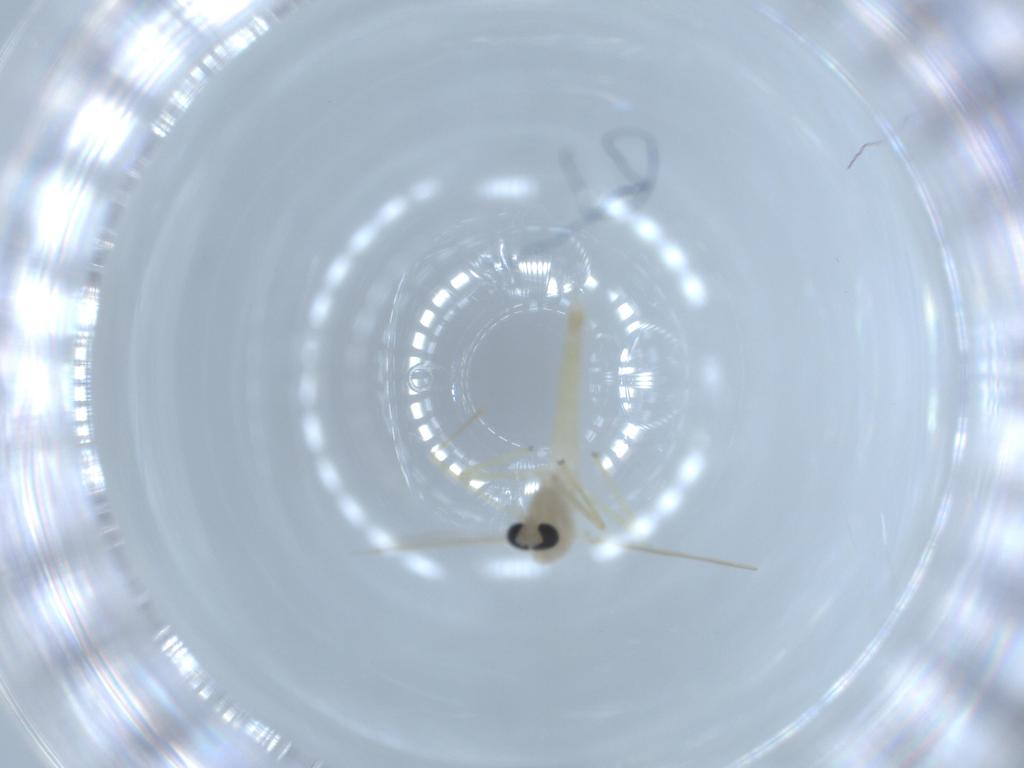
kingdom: Animalia
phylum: Arthropoda
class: Insecta
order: Diptera
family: Chironomidae
